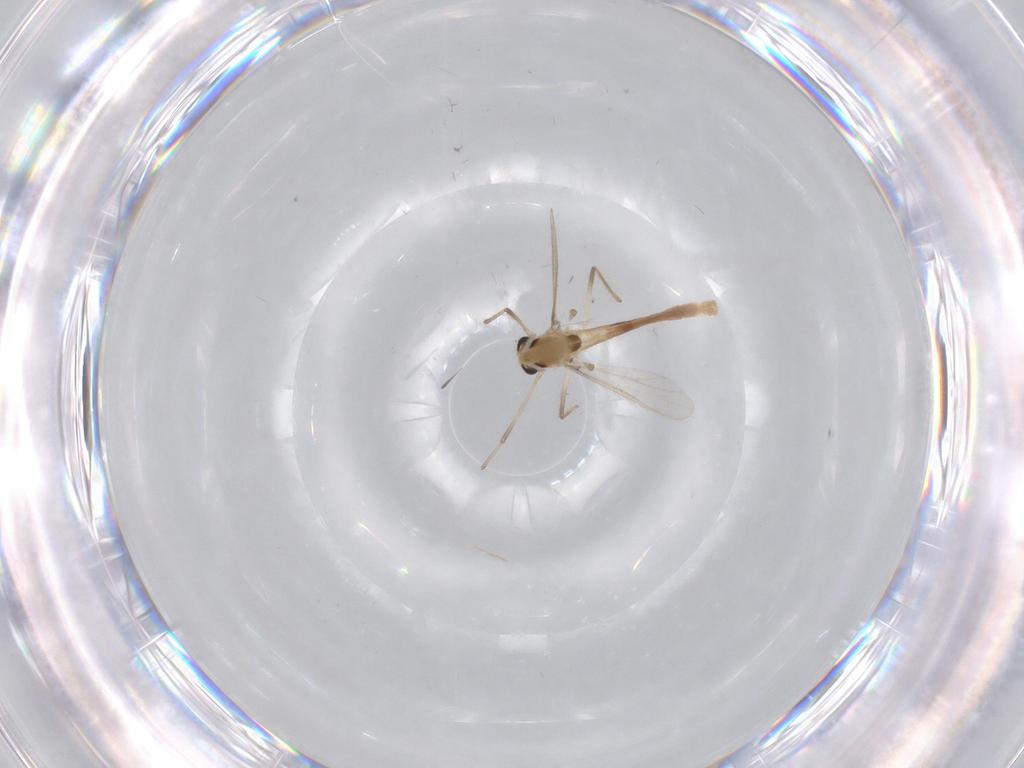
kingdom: Animalia
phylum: Arthropoda
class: Insecta
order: Diptera
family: Chironomidae
